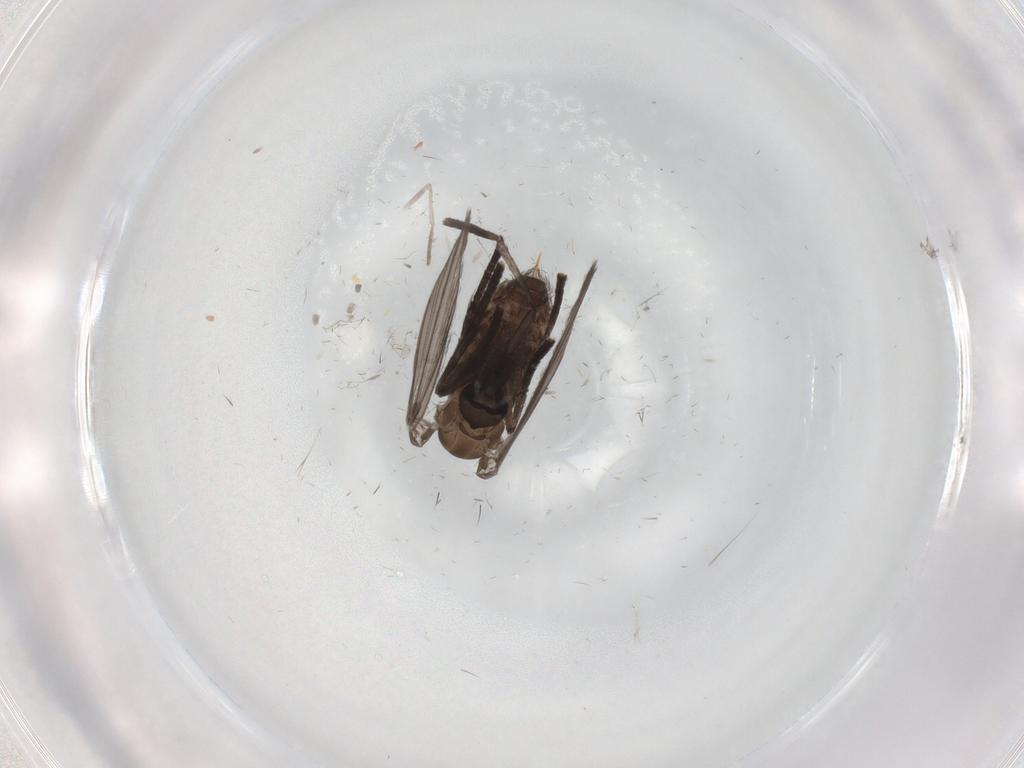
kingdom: Animalia
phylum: Arthropoda
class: Insecta
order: Diptera
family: Psychodidae
